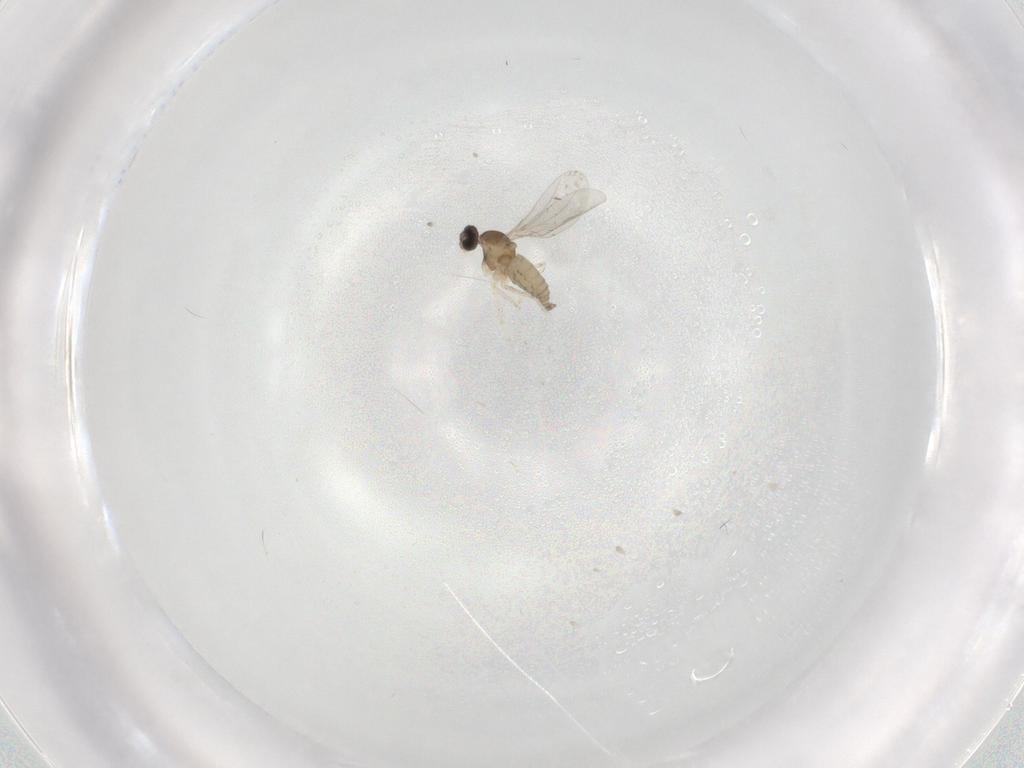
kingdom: Animalia
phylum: Arthropoda
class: Insecta
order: Diptera
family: Cecidomyiidae
